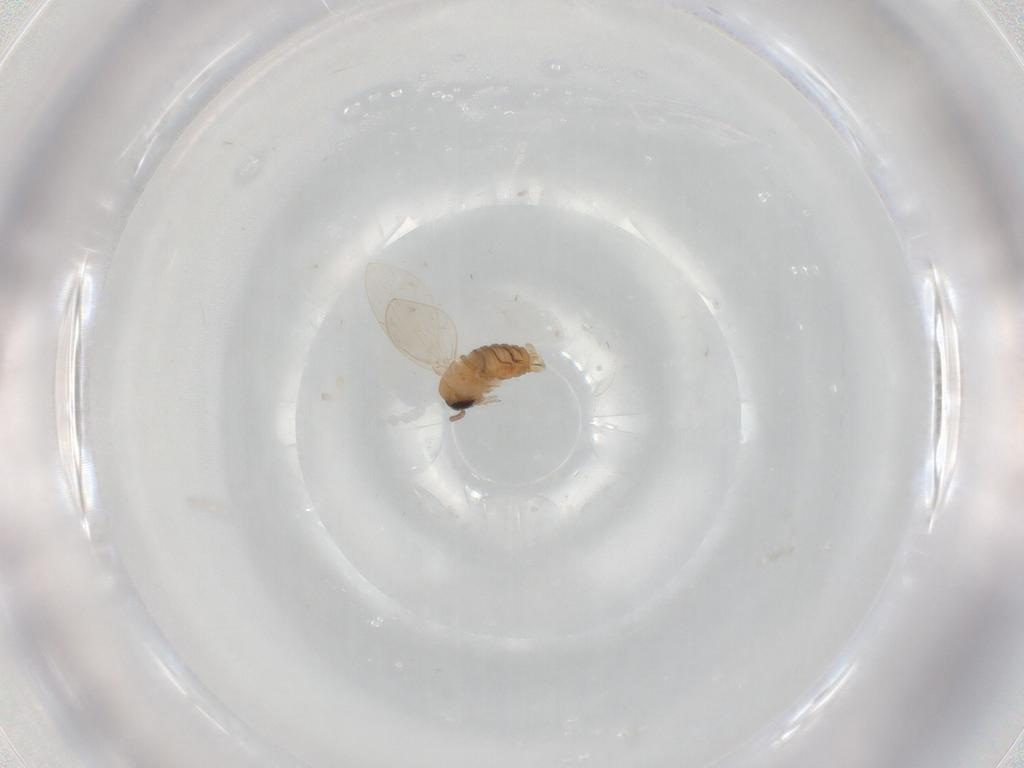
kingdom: Animalia
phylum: Arthropoda
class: Insecta
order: Diptera
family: Psychodidae
